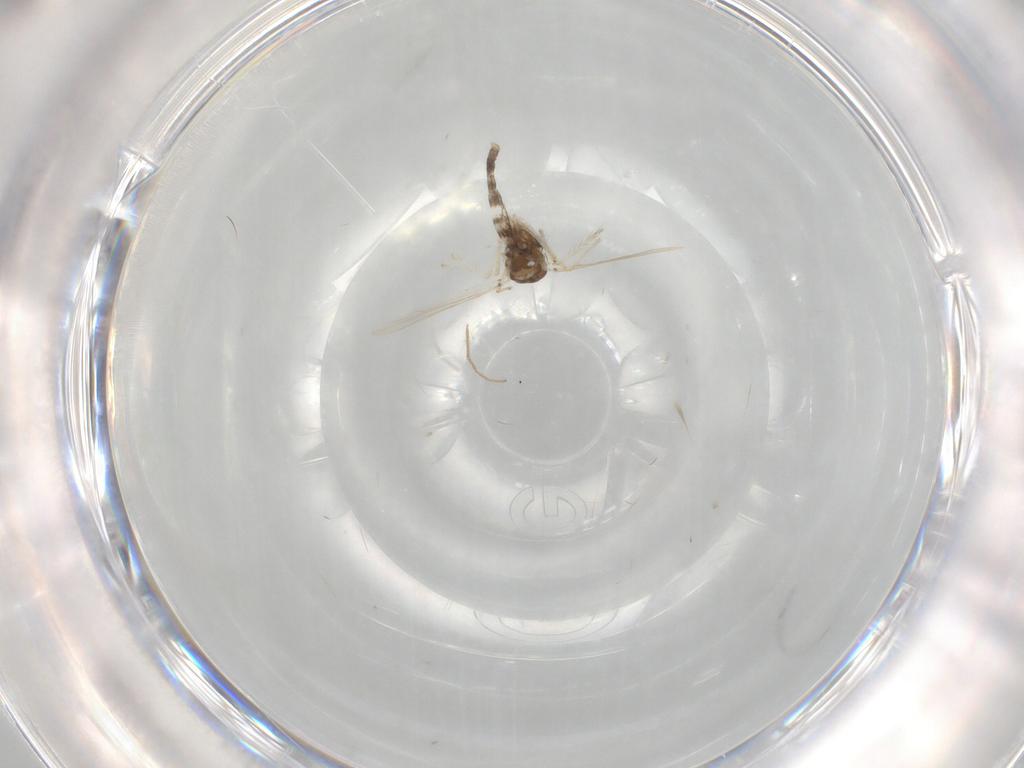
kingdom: Animalia
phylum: Arthropoda
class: Insecta
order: Diptera
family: Chironomidae
